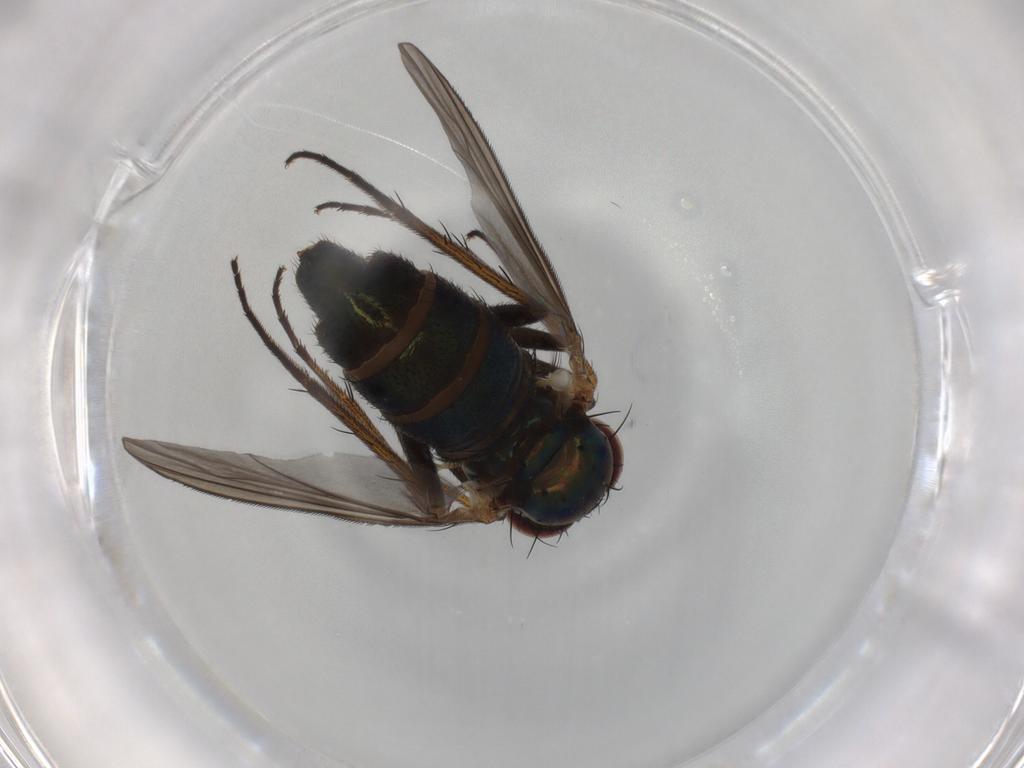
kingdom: Animalia
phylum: Arthropoda
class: Insecta
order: Diptera
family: Dolichopodidae
